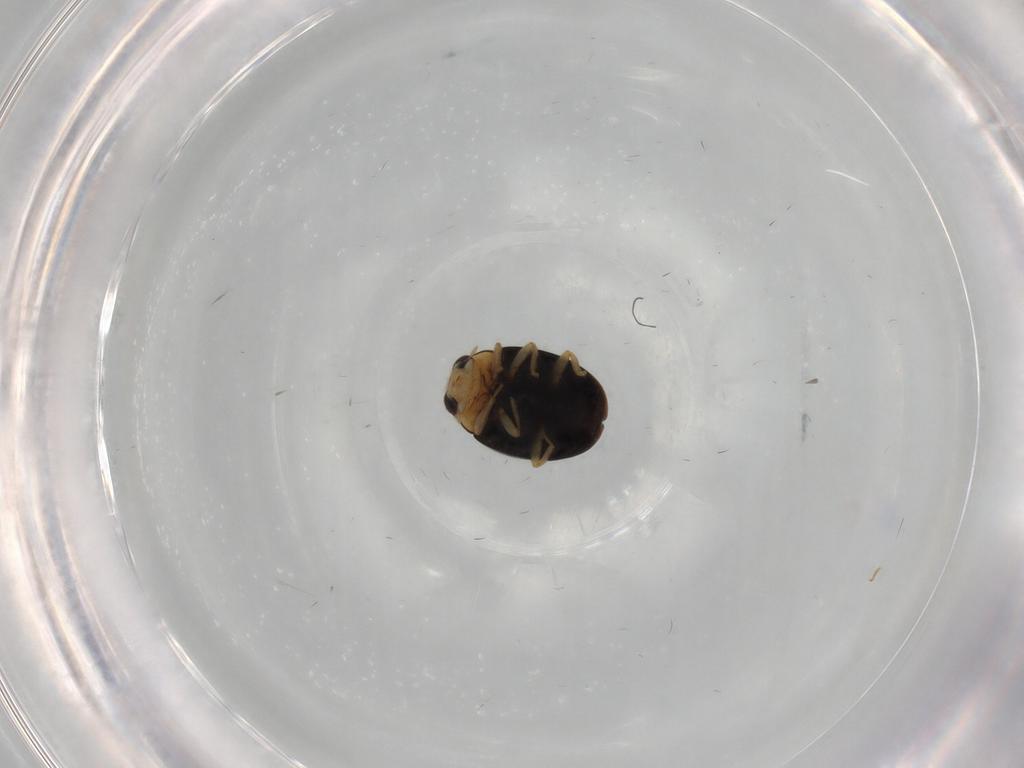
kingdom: Animalia
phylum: Arthropoda
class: Insecta
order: Coleoptera
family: Coccinellidae
